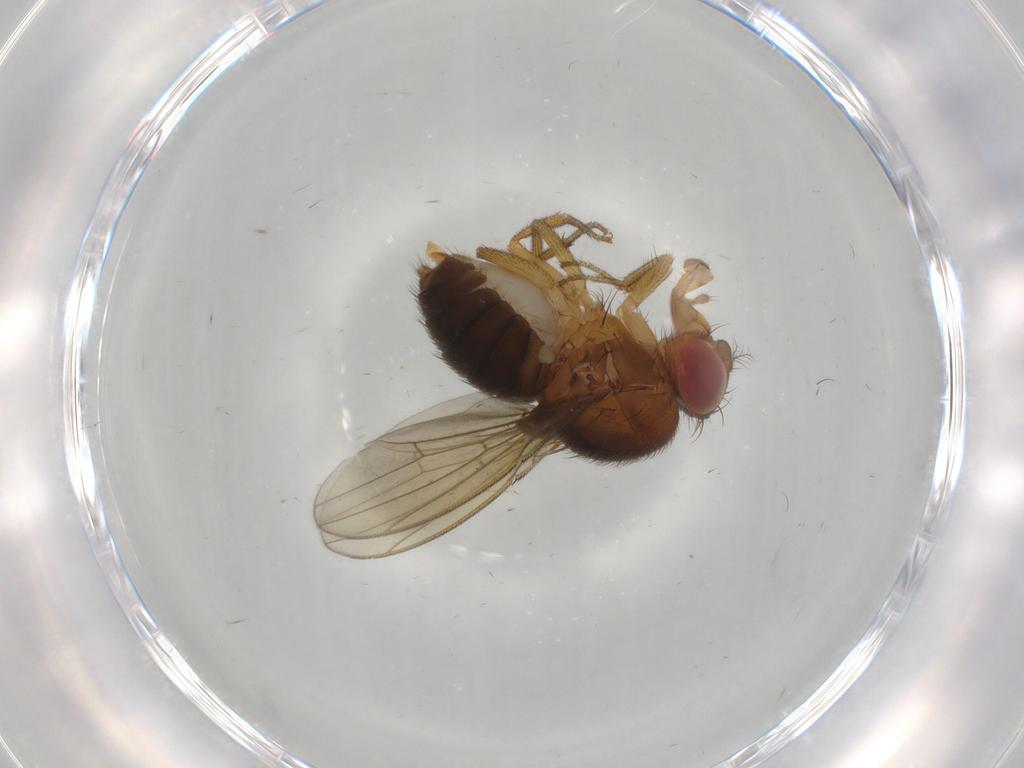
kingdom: Animalia
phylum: Arthropoda
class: Insecta
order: Diptera
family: Drosophilidae
